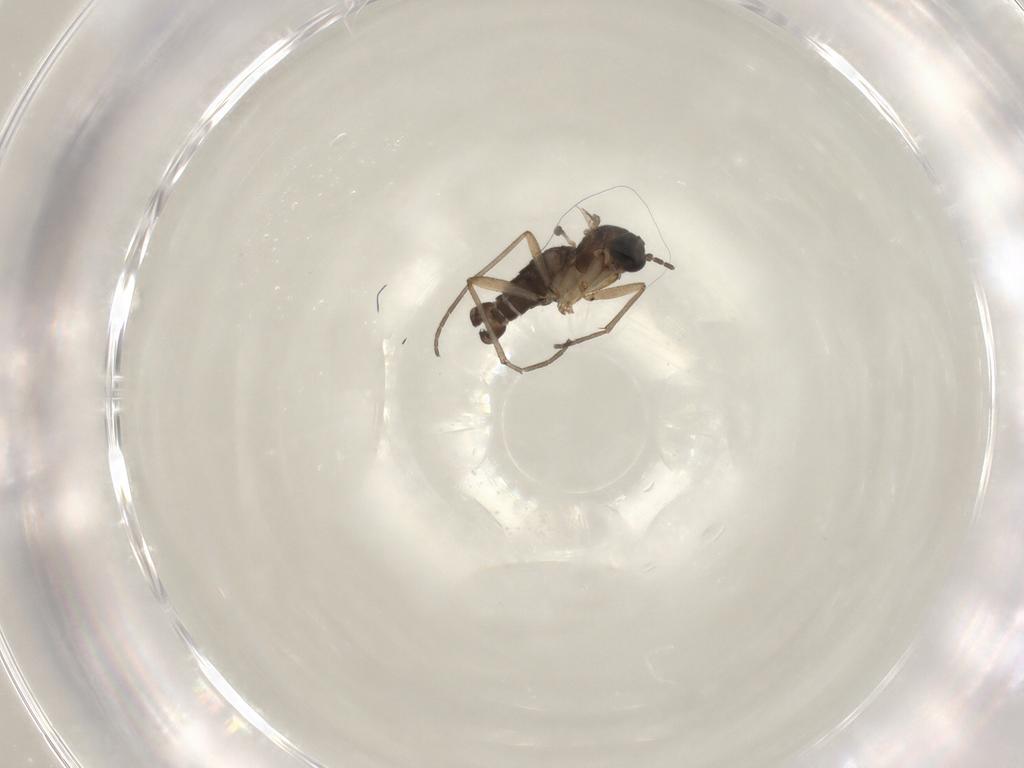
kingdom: Animalia
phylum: Arthropoda
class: Insecta
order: Diptera
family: Sciaridae
